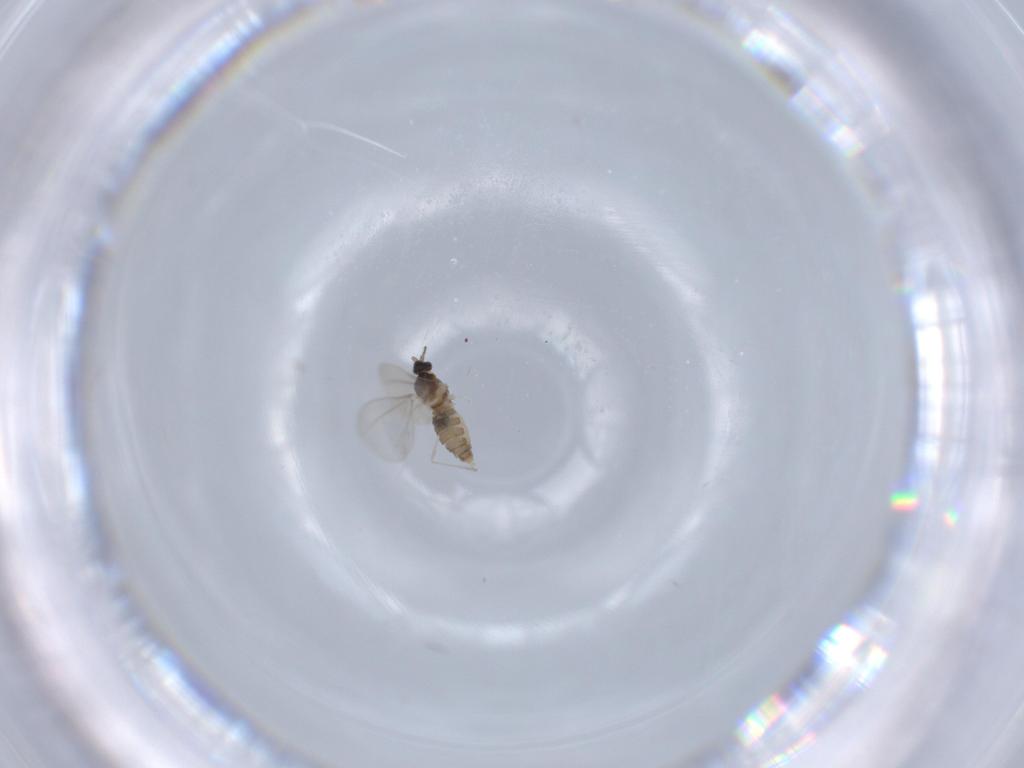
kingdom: Animalia
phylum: Arthropoda
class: Insecta
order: Diptera
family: Cecidomyiidae
